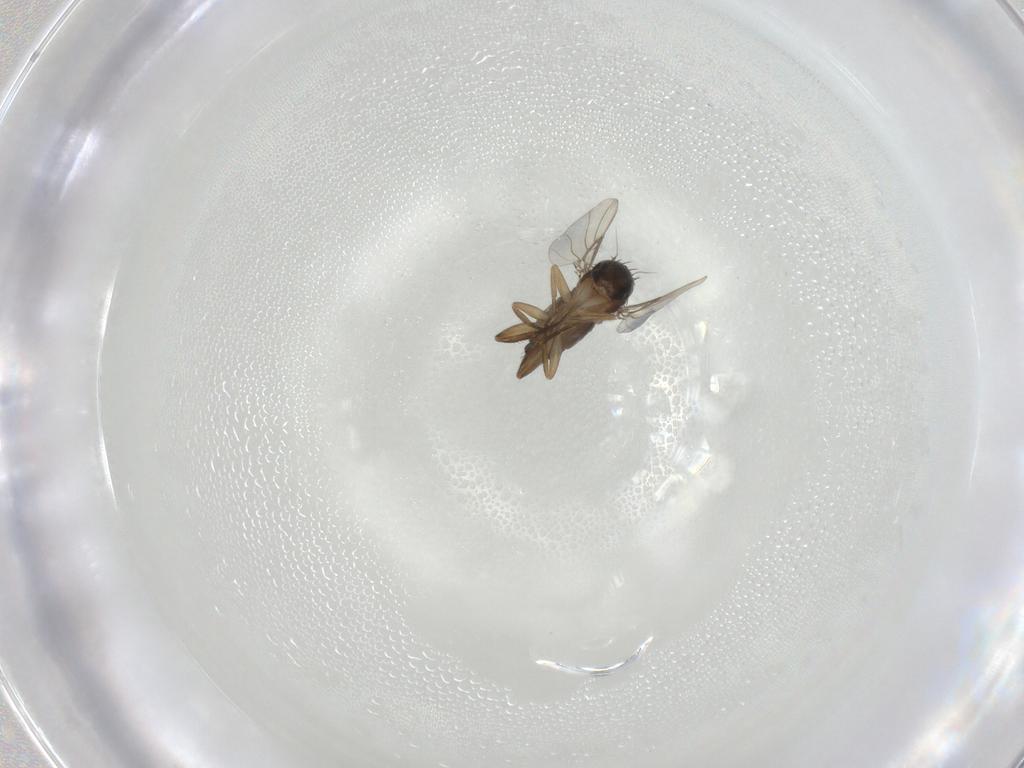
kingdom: Animalia
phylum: Arthropoda
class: Insecta
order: Diptera
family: Phoridae
